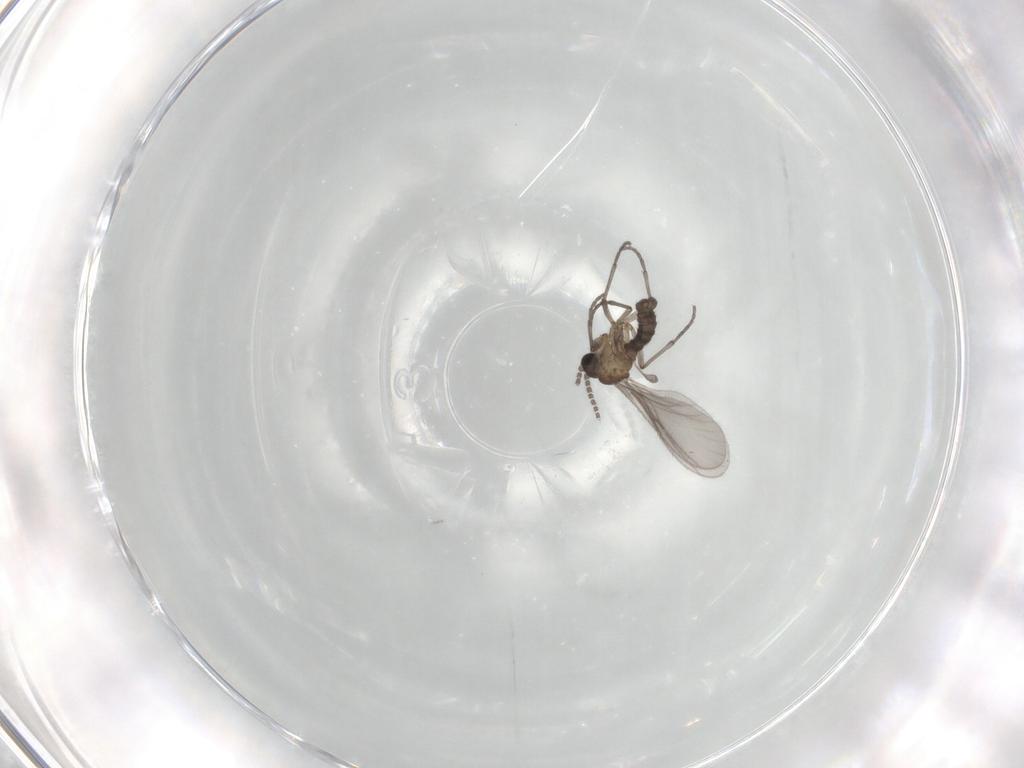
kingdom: Animalia
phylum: Arthropoda
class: Insecta
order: Diptera
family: Sciaridae
